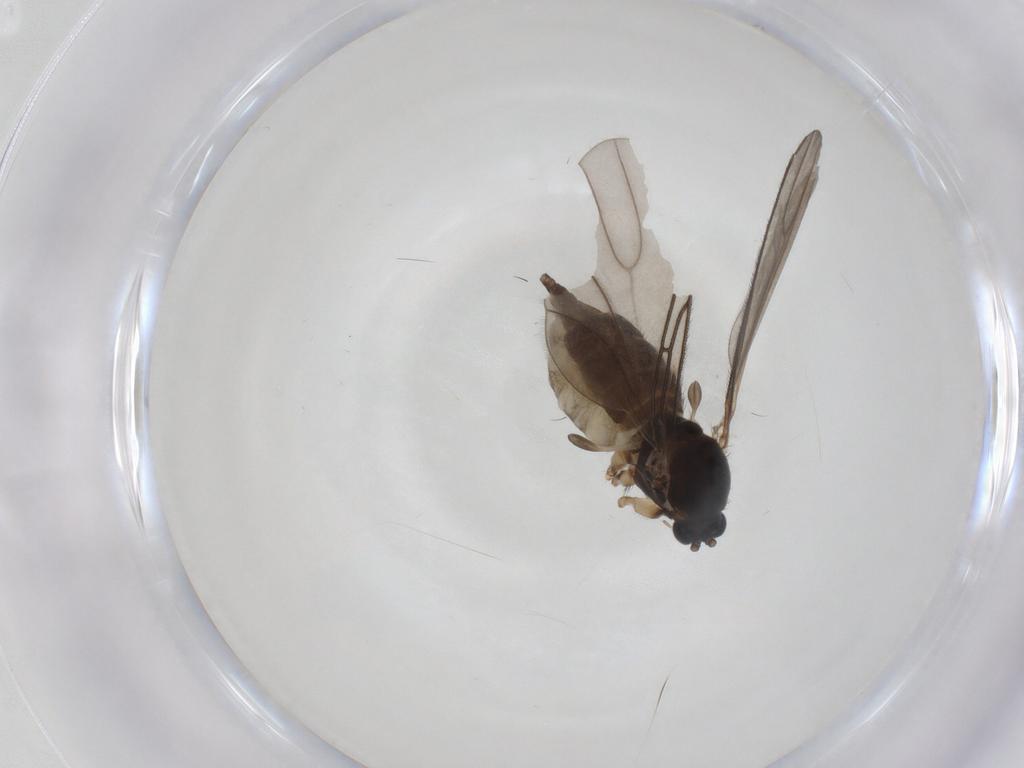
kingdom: Animalia
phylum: Arthropoda
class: Insecta
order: Diptera
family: Sciaridae
